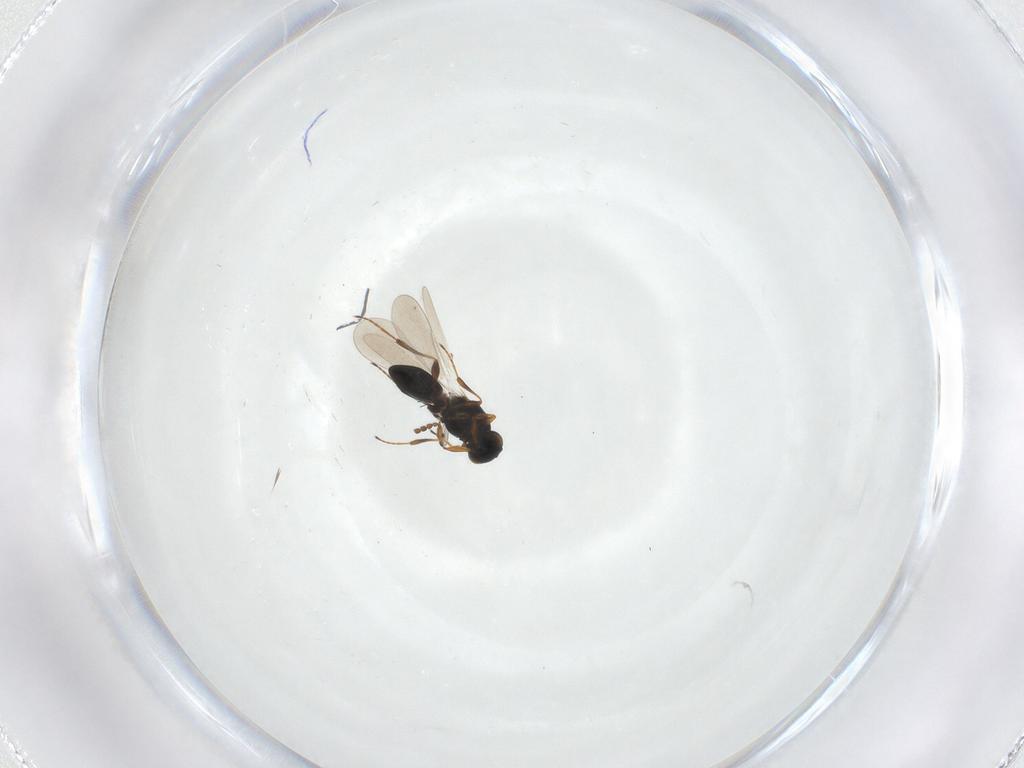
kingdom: Animalia
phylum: Arthropoda
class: Insecta
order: Hymenoptera
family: Platygastridae
